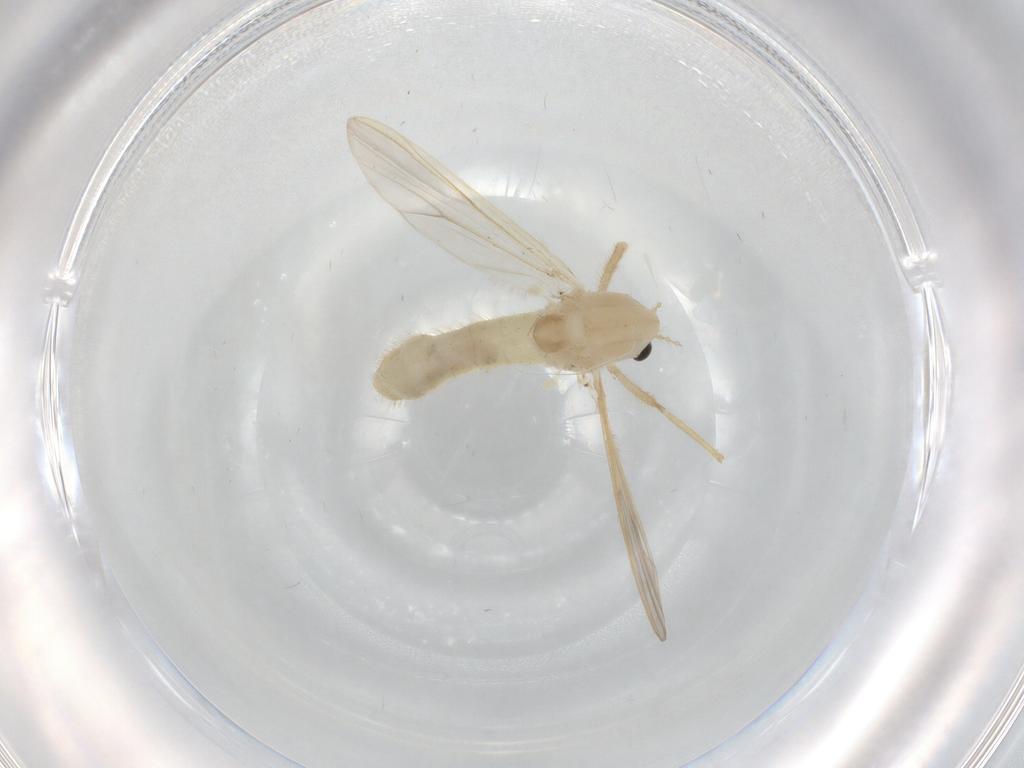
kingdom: Animalia
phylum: Arthropoda
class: Insecta
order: Diptera
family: Chironomidae
